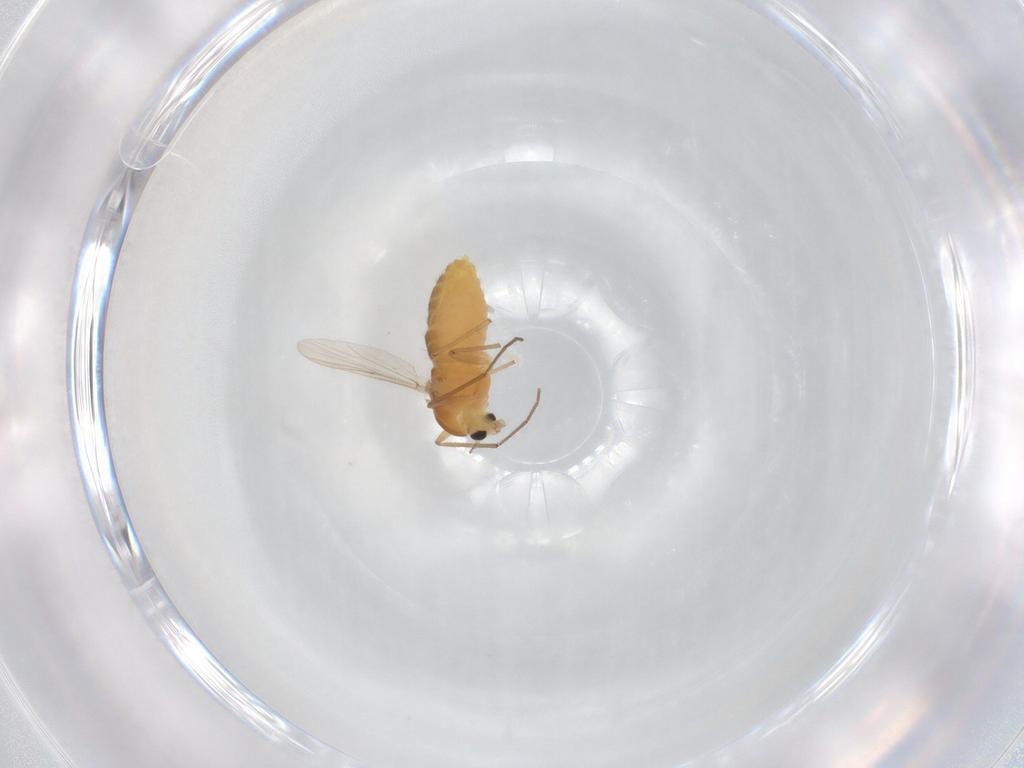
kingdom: Animalia
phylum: Arthropoda
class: Insecta
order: Diptera
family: Chironomidae
